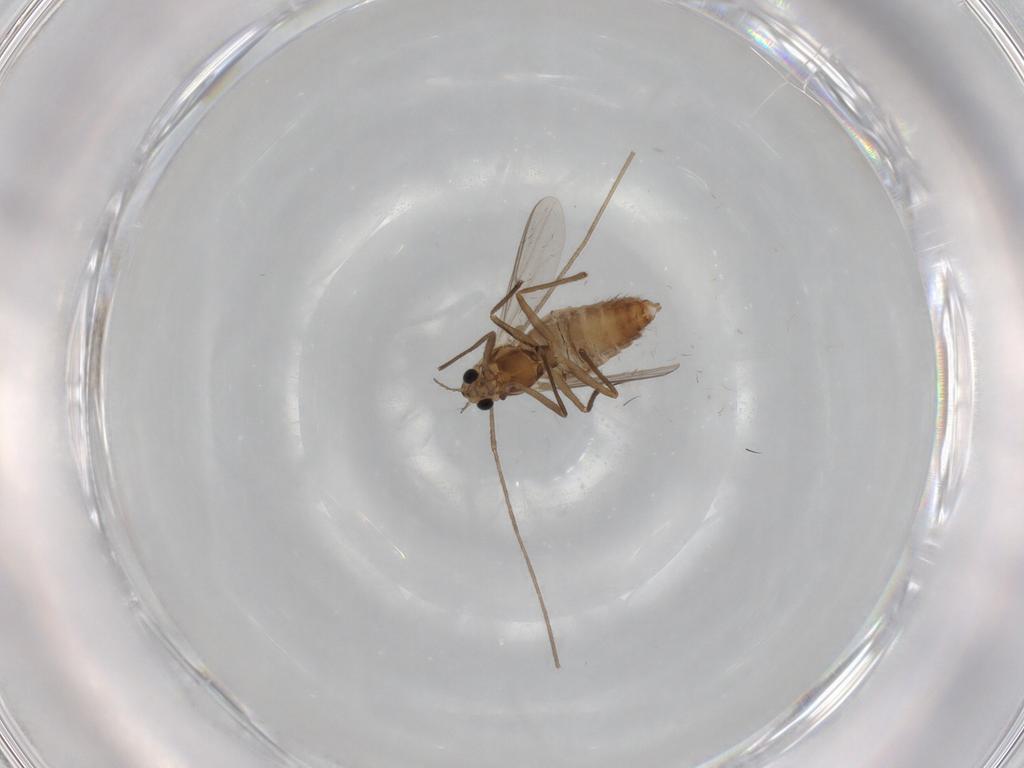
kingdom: Animalia
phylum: Arthropoda
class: Insecta
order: Diptera
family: Chironomidae
